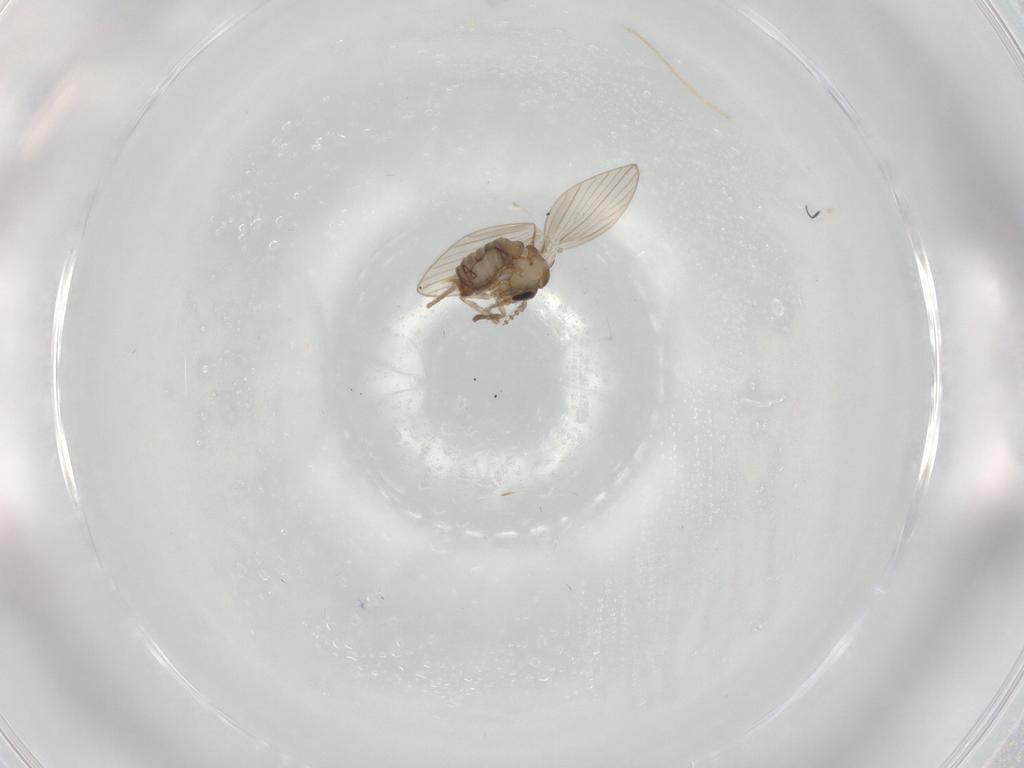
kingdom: Animalia
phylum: Arthropoda
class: Insecta
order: Diptera
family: Psychodidae
